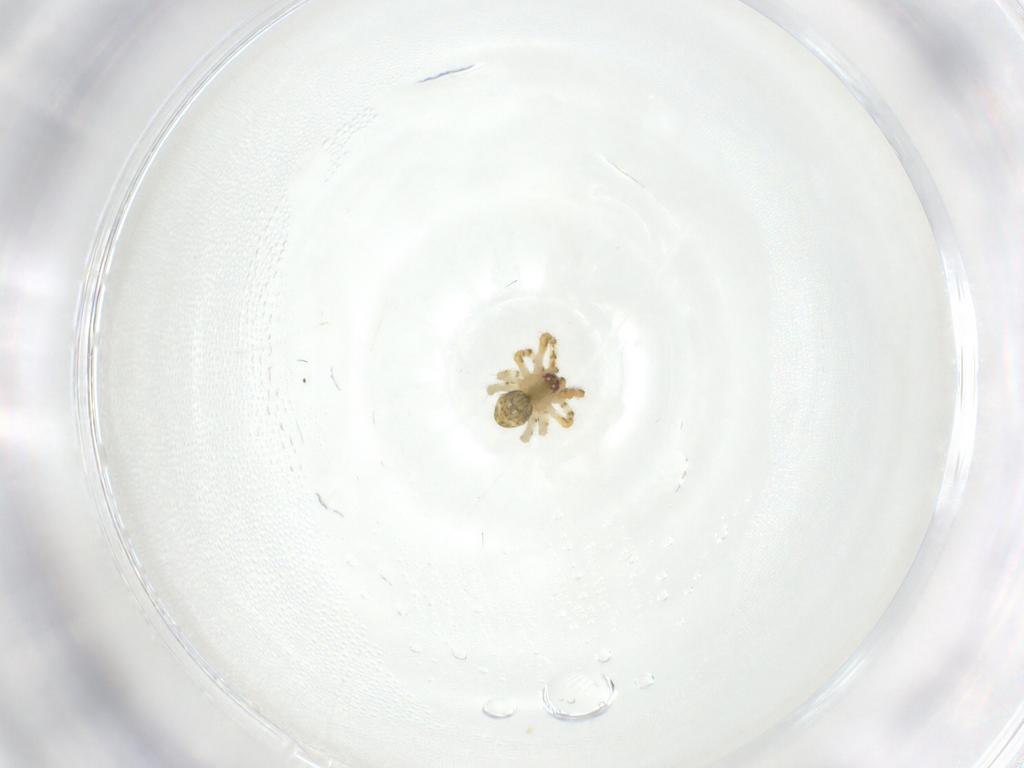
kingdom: Animalia
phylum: Arthropoda
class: Arachnida
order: Araneae
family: Theridiidae
